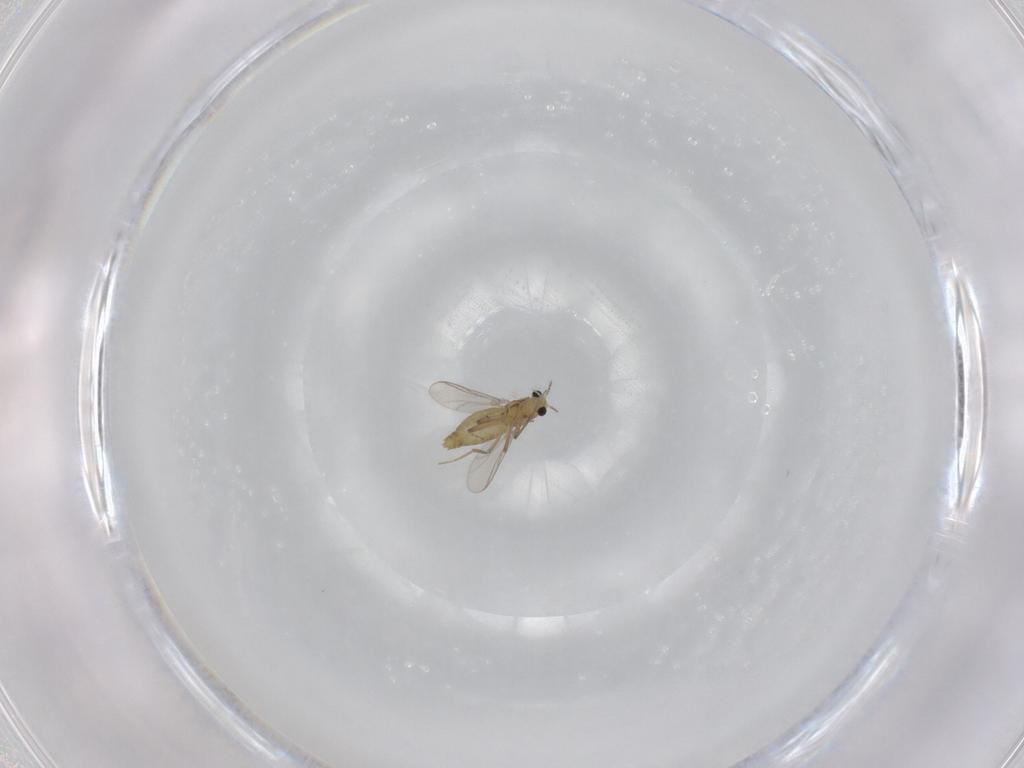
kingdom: Animalia
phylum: Arthropoda
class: Insecta
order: Diptera
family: Chironomidae
